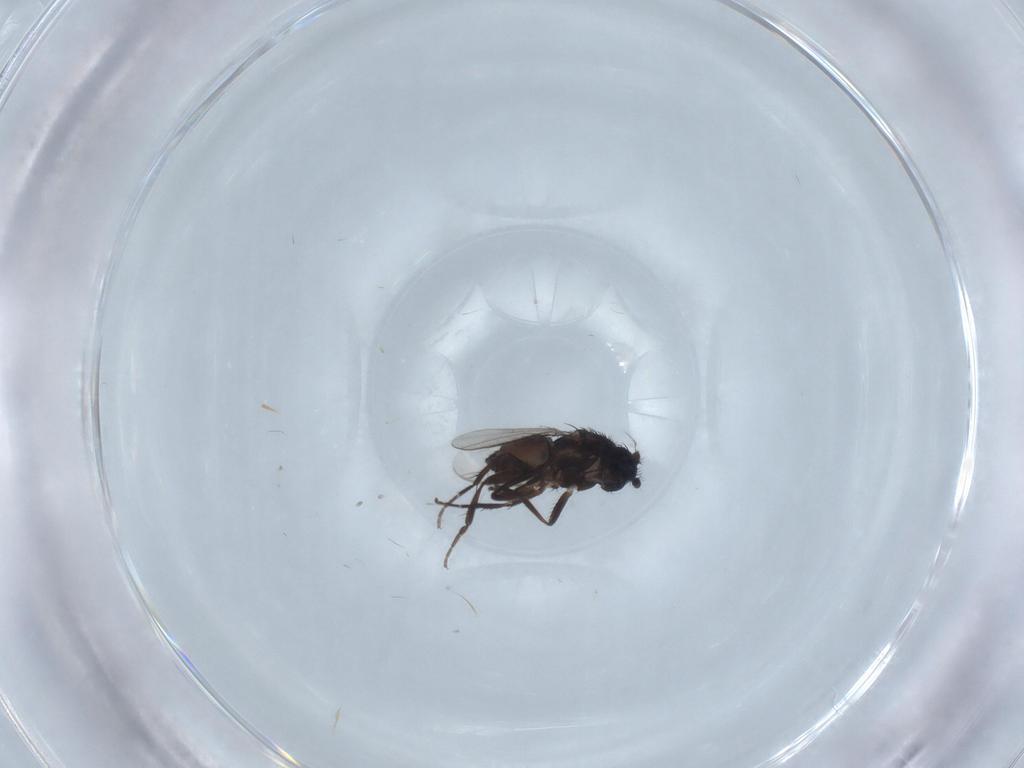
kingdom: Animalia
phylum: Arthropoda
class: Insecta
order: Diptera
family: Sphaeroceridae
